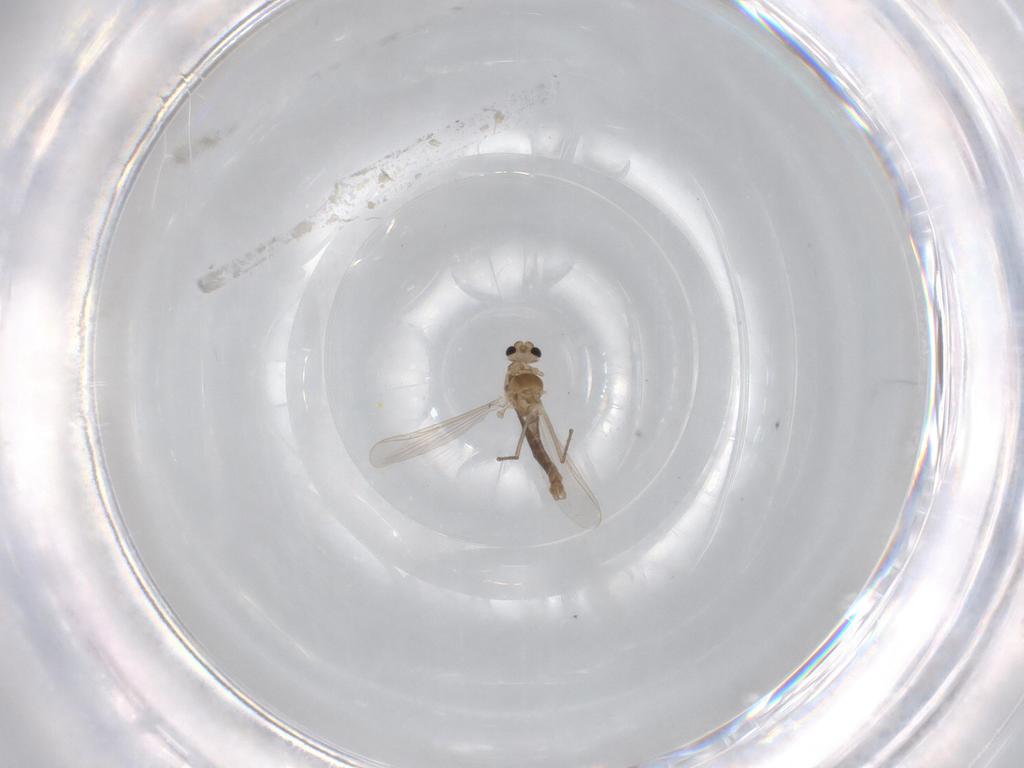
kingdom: Animalia
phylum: Arthropoda
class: Insecta
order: Diptera
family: Chironomidae
